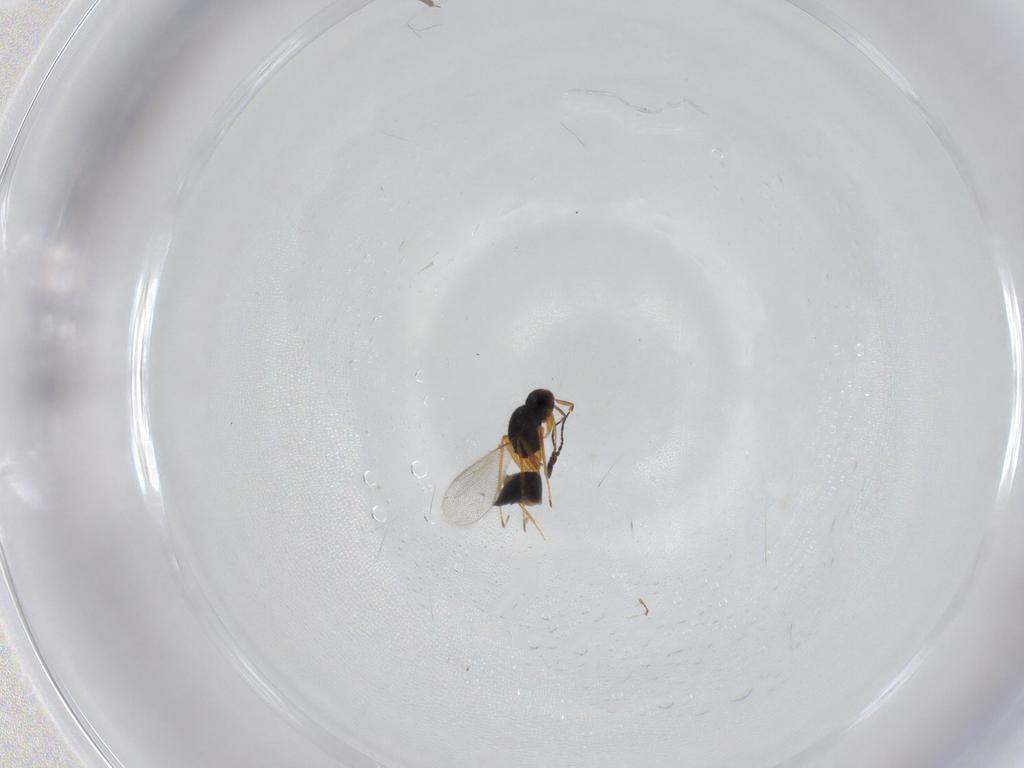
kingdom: Animalia
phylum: Arthropoda
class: Insecta
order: Hymenoptera
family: Mymaridae
